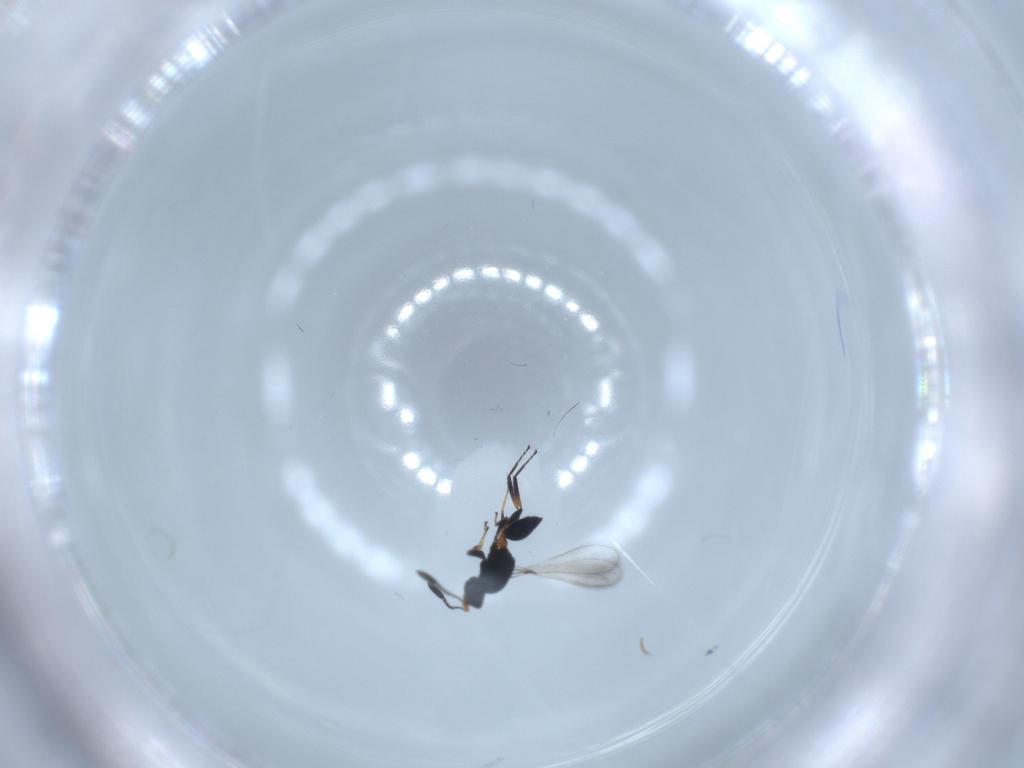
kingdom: Animalia
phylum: Arthropoda
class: Insecta
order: Hymenoptera
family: Mymaridae
